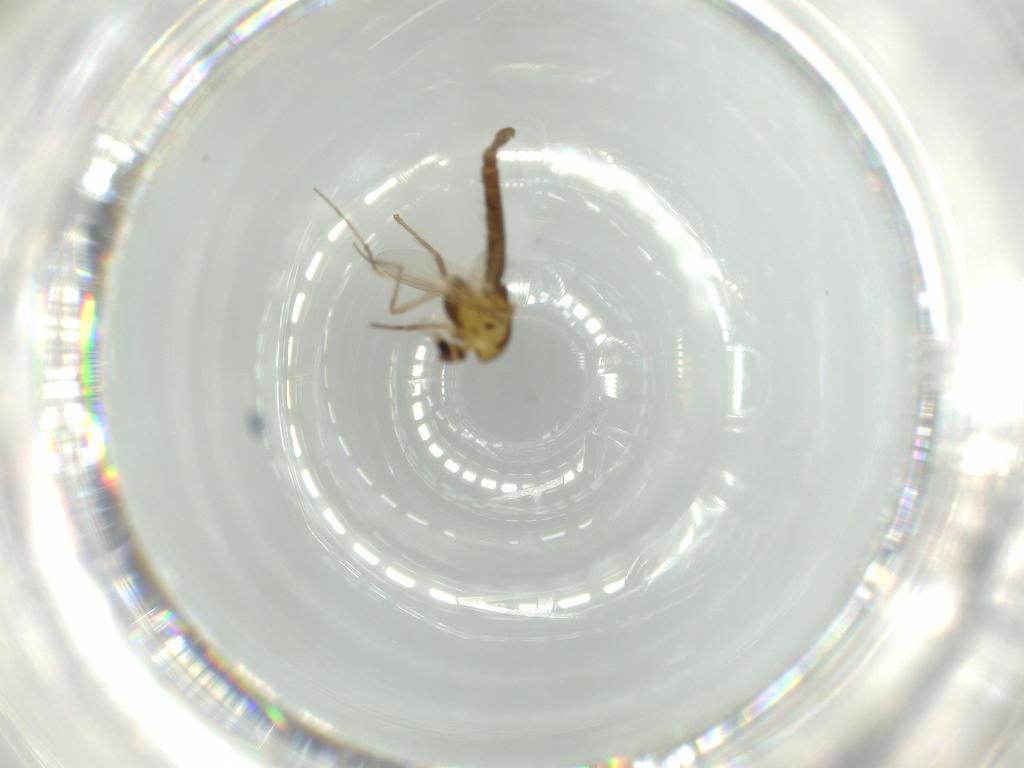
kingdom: Animalia
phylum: Arthropoda
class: Insecta
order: Diptera
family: Chironomidae
